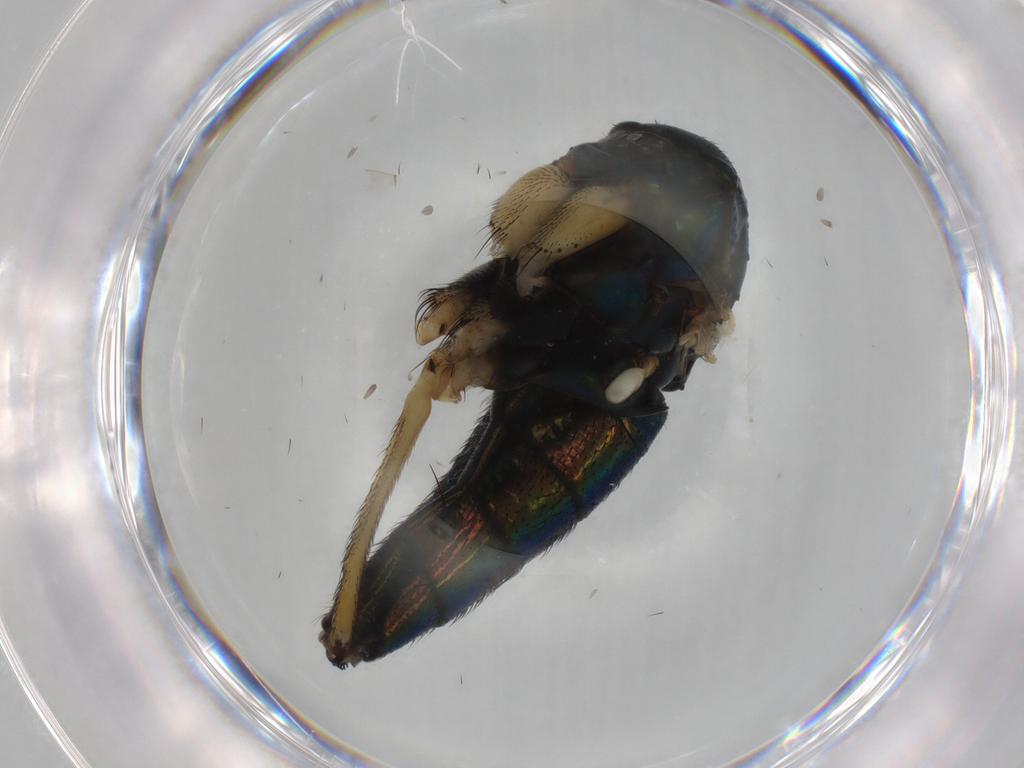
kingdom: Animalia
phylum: Arthropoda
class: Insecta
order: Diptera
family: Dolichopodidae
